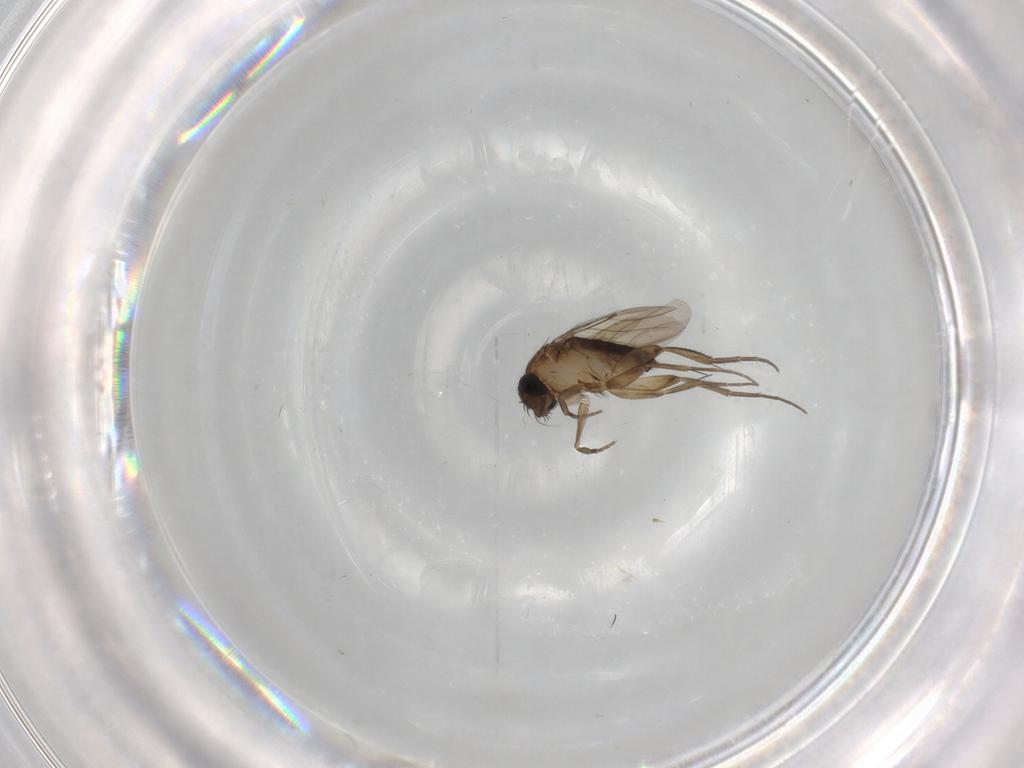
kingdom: Animalia
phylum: Arthropoda
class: Insecta
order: Diptera
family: Phoridae
